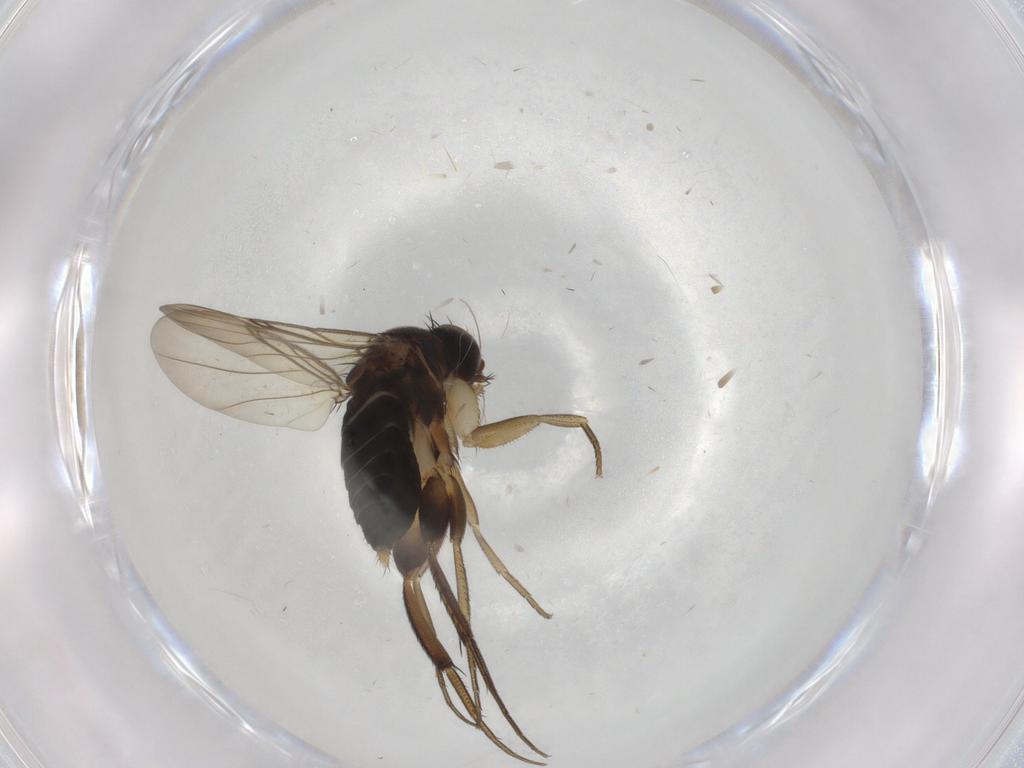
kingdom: Animalia
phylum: Arthropoda
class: Insecta
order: Diptera
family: Phoridae
